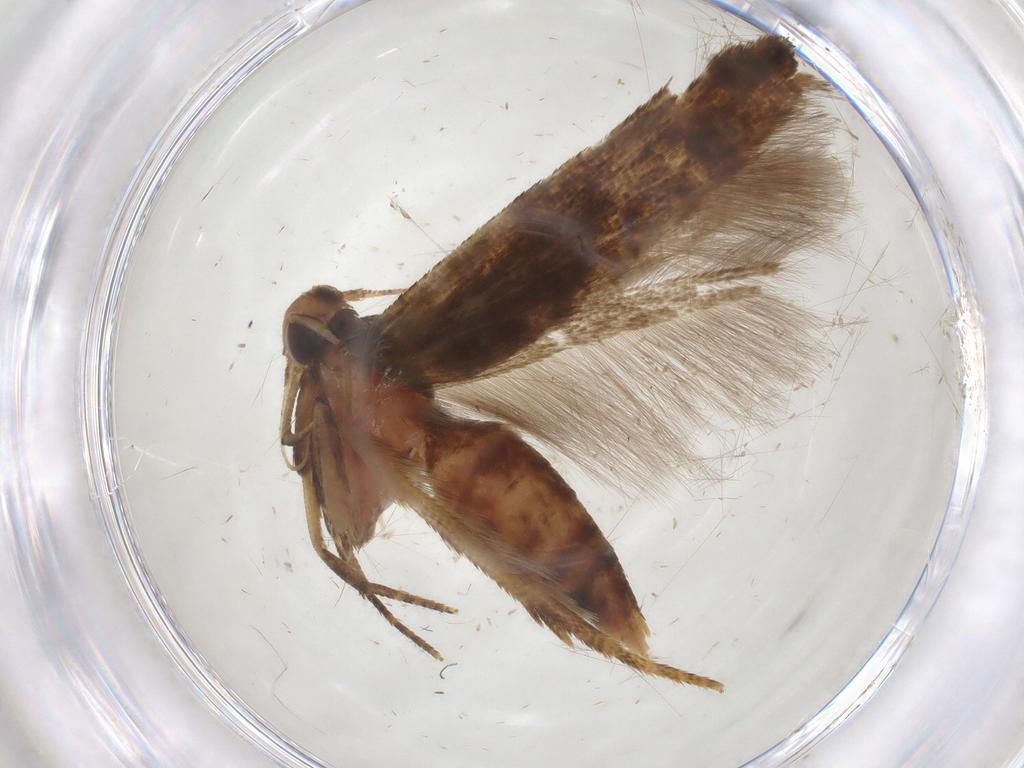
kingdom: Animalia
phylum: Arthropoda
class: Insecta
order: Lepidoptera
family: Cosmopterigidae
